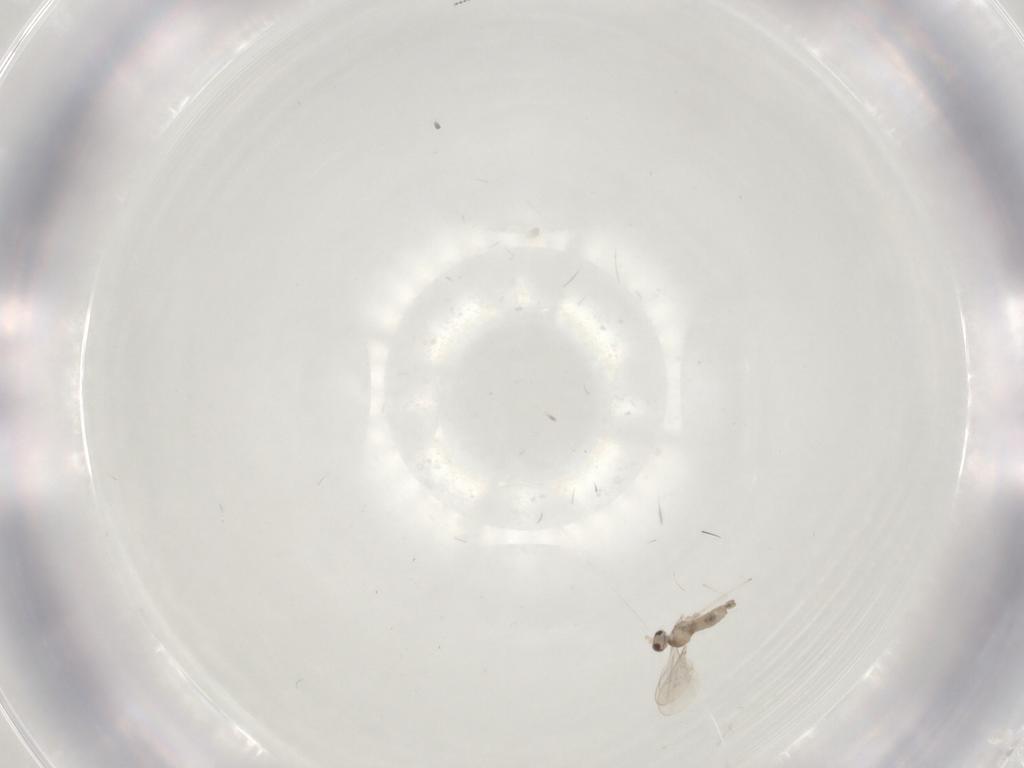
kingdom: Animalia
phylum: Arthropoda
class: Insecta
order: Diptera
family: Cecidomyiidae
